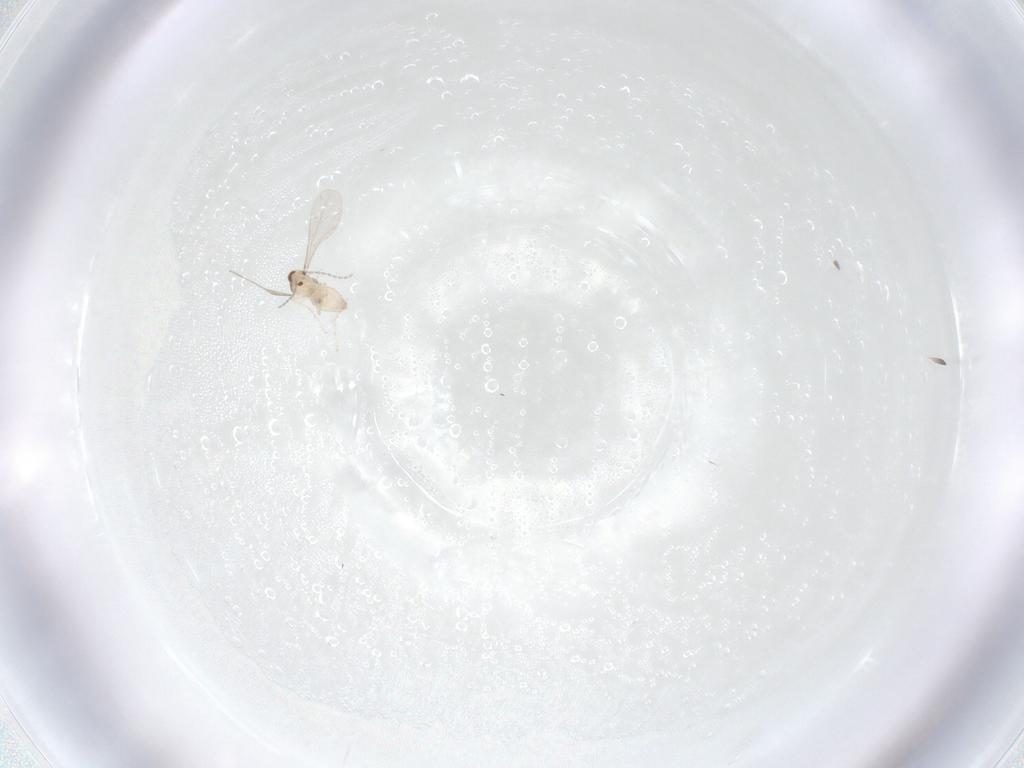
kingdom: Animalia
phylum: Arthropoda
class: Insecta
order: Diptera
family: Cecidomyiidae
